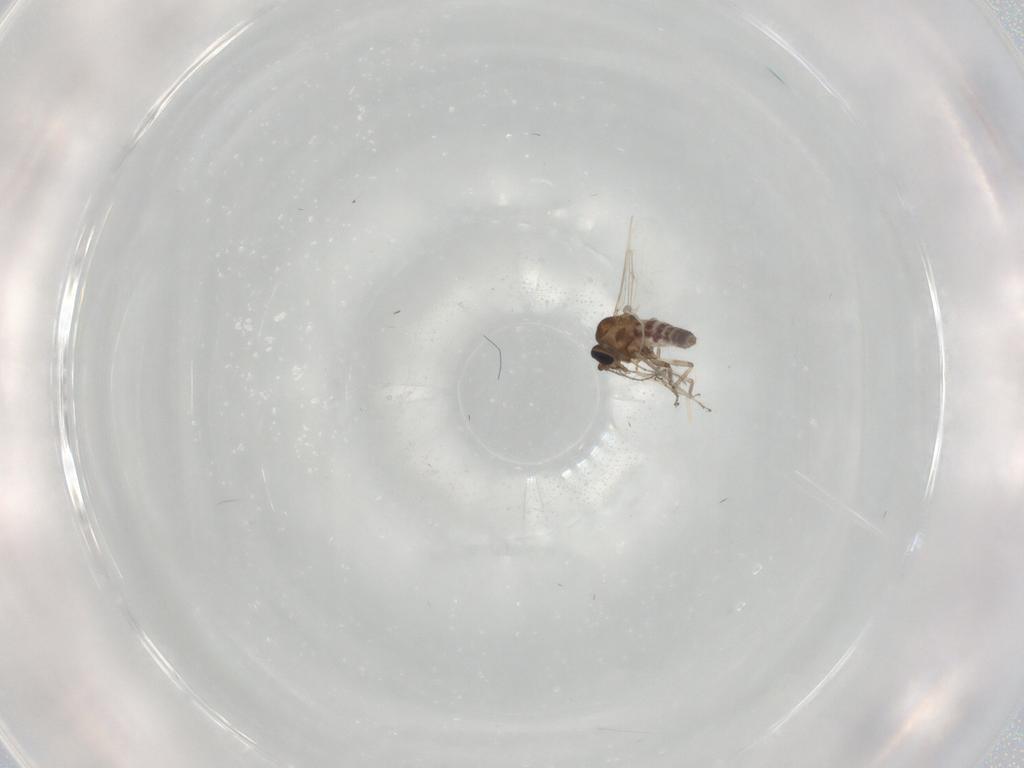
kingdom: Animalia
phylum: Arthropoda
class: Insecta
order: Diptera
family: Ceratopogonidae
